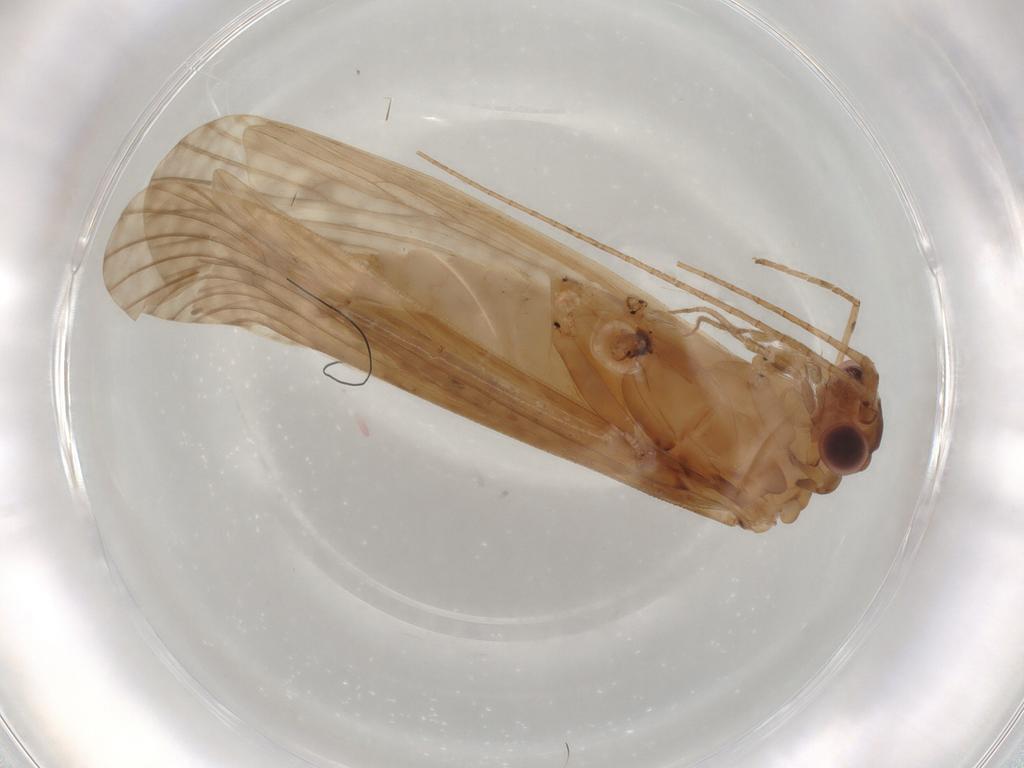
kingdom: Animalia
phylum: Arthropoda
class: Insecta
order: Trichoptera
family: Hydropsychidae
